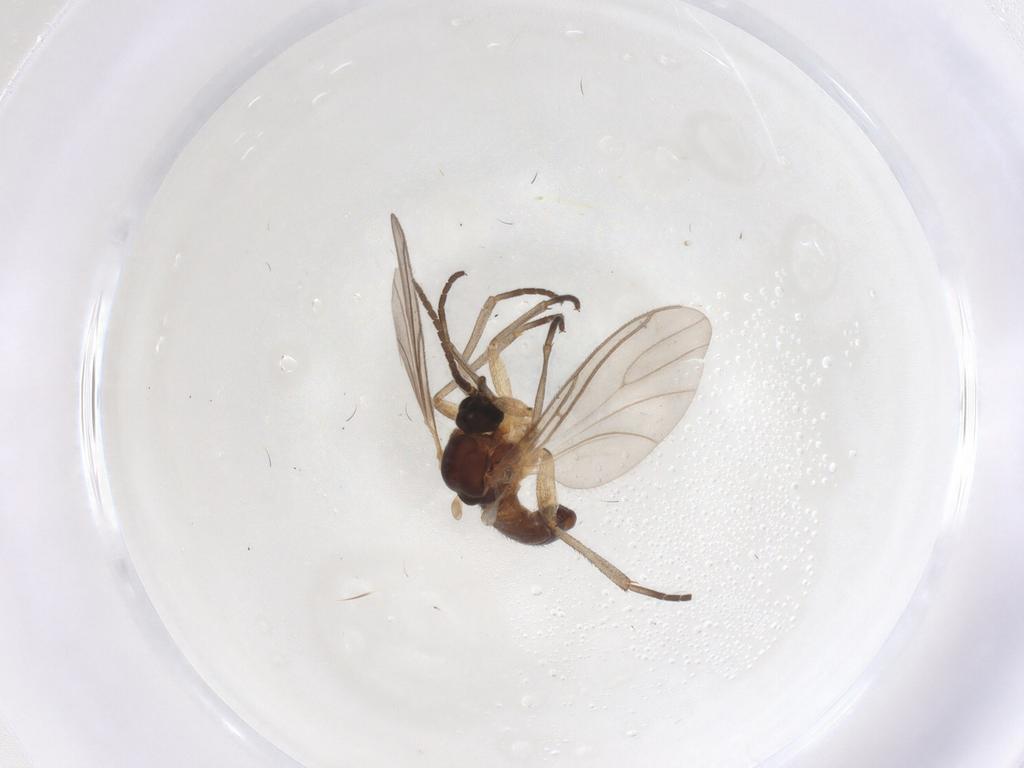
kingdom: Animalia
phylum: Arthropoda
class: Insecta
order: Diptera
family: Sciaridae
